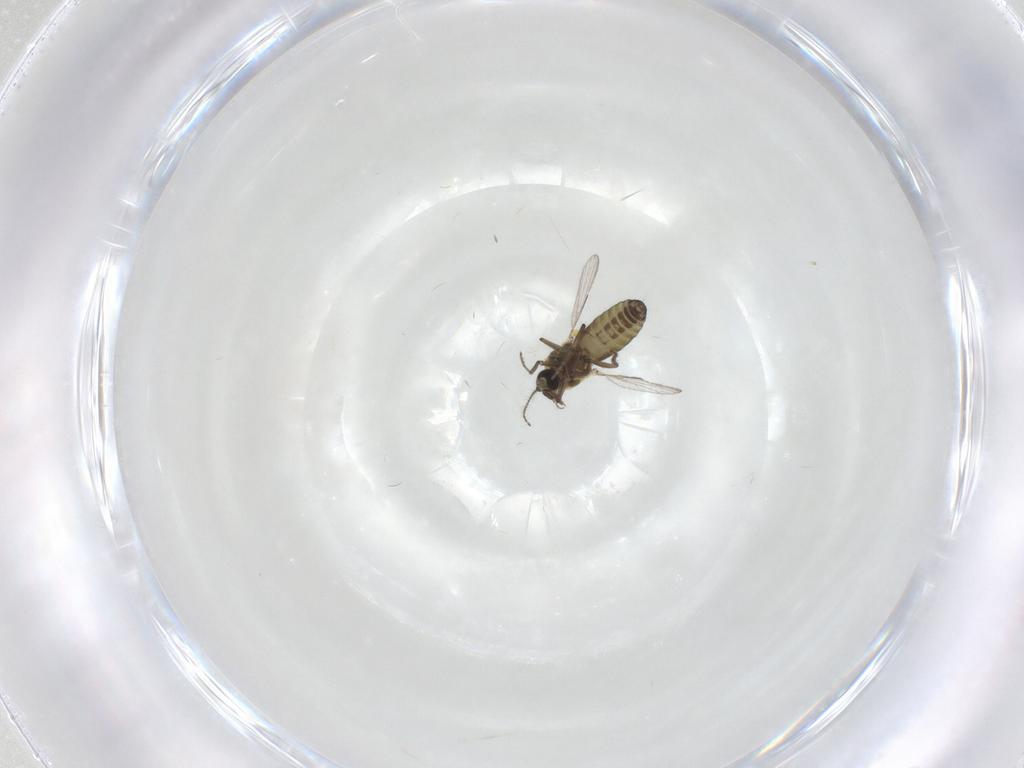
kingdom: Animalia
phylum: Arthropoda
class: Insecta
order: Diptera
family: Ceratopogonidae
